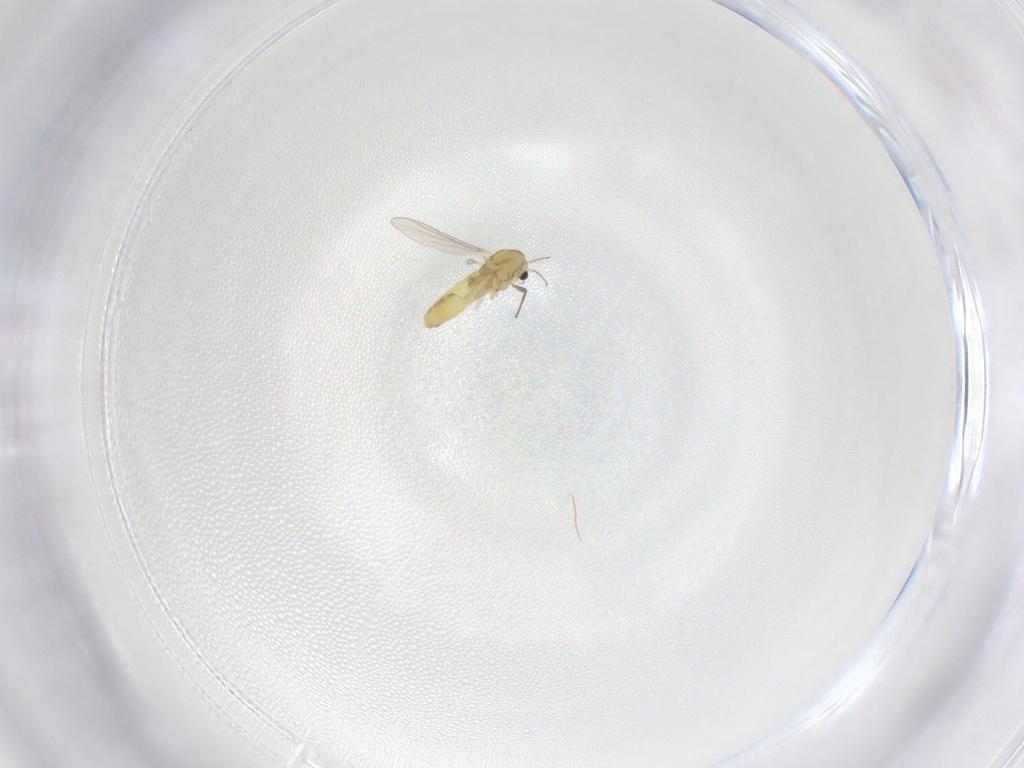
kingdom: Animalia
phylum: Arthropoda
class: Insecta
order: Diptera
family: Chironomidae
